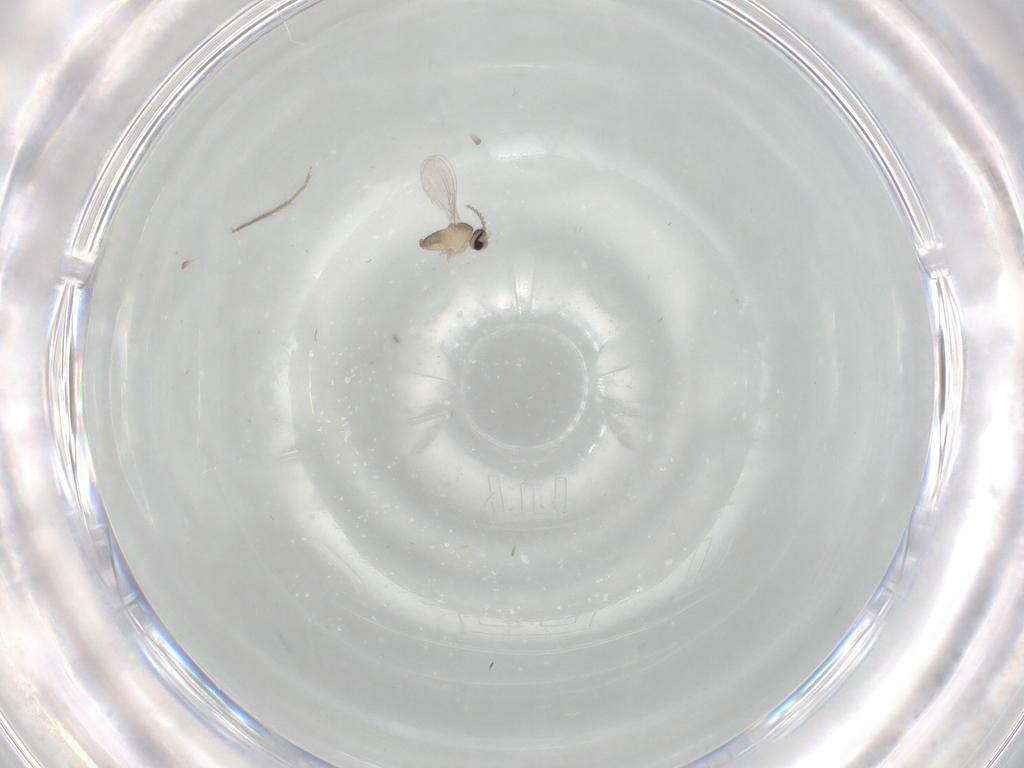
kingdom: Animalia
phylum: Arthropoda
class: Insecta
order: Diptera
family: Cecidomyiidae
